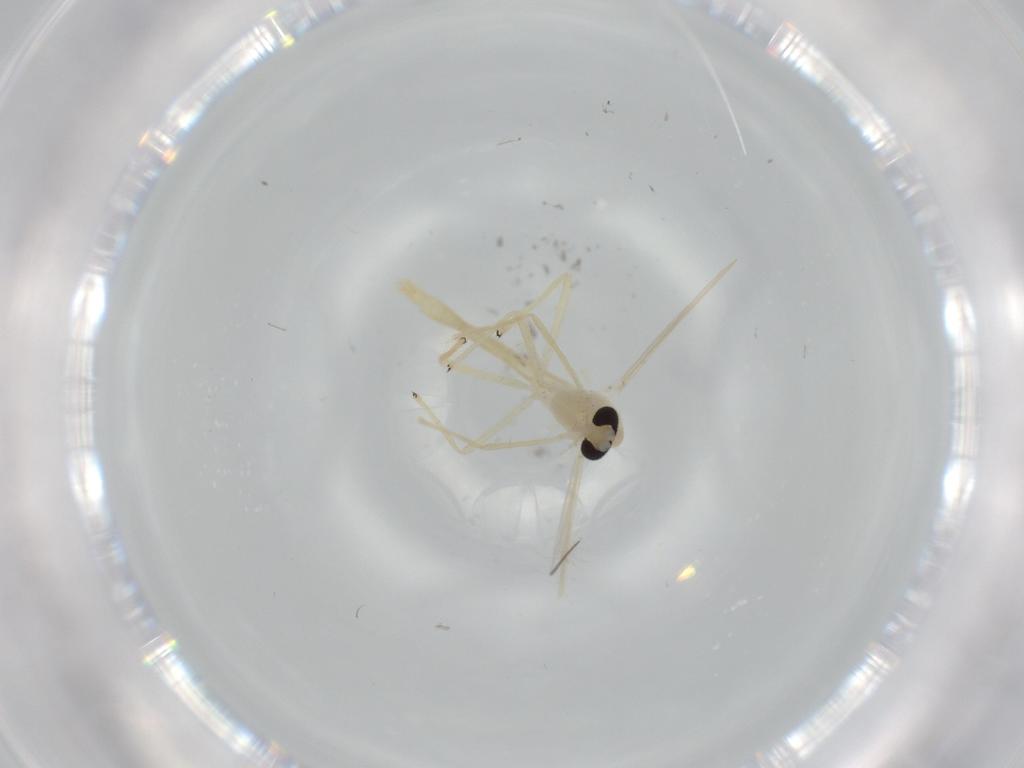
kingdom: Animalia
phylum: Arthropoda
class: Insecta
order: Diptera
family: Chironomidae
